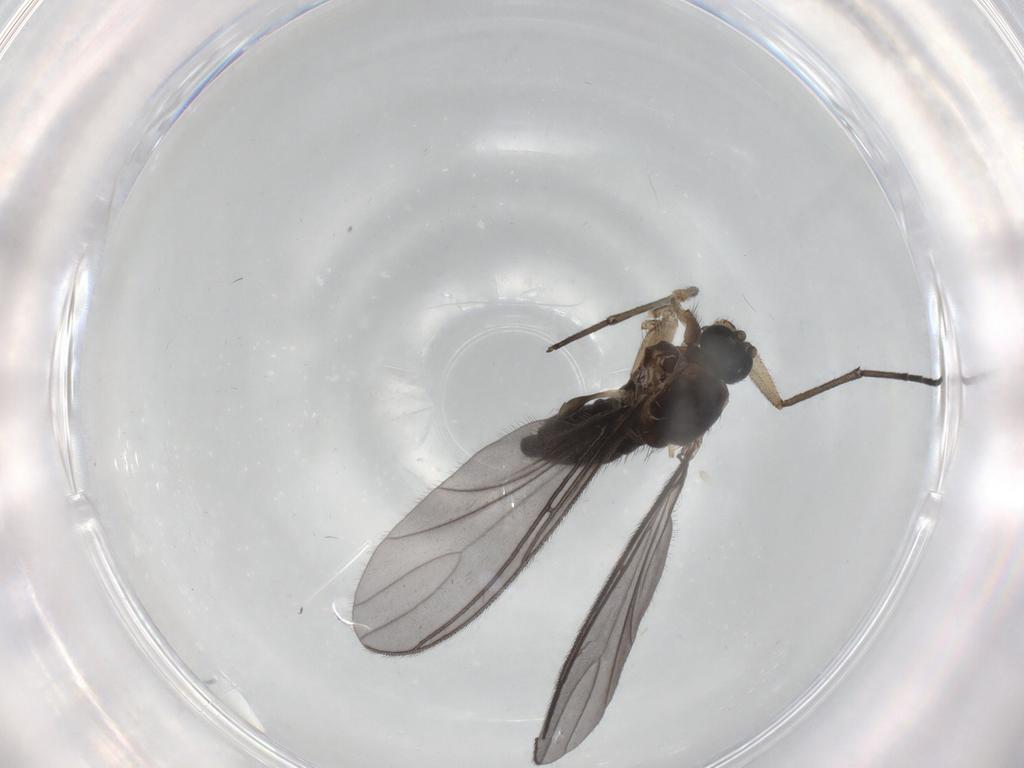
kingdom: Animalia
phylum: Arthropoda
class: Insecta
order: Diptera
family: Sciaridae
